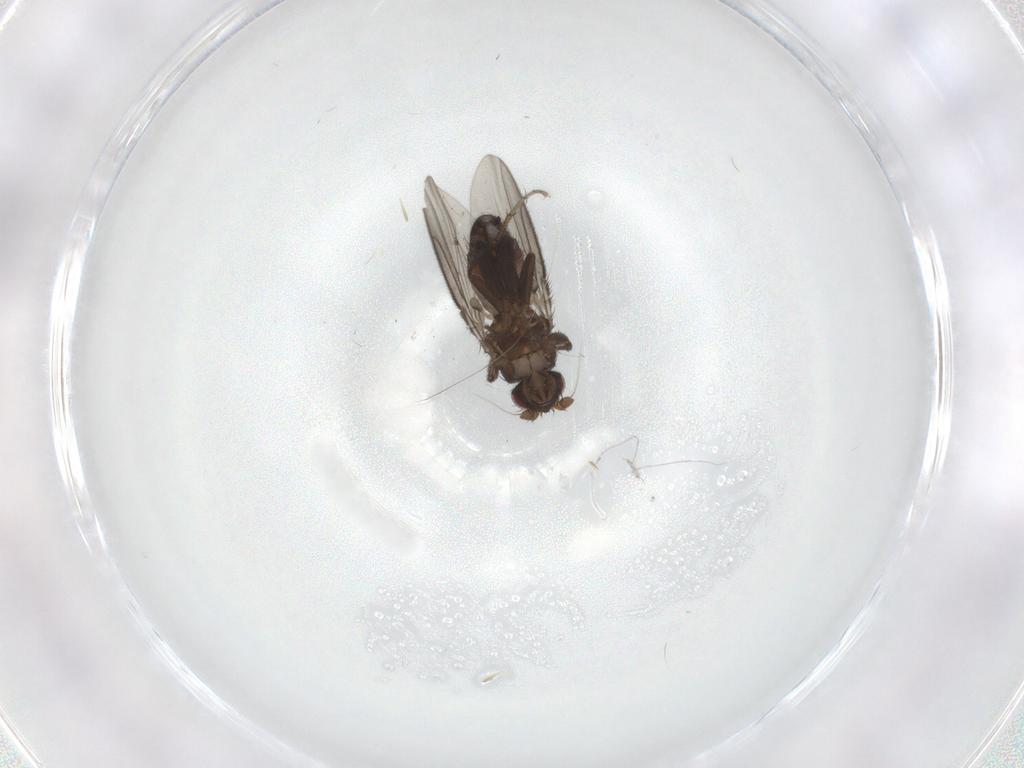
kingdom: Animalia
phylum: Arthropoda
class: Insecta
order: Diptera
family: Sphaeroceridae
